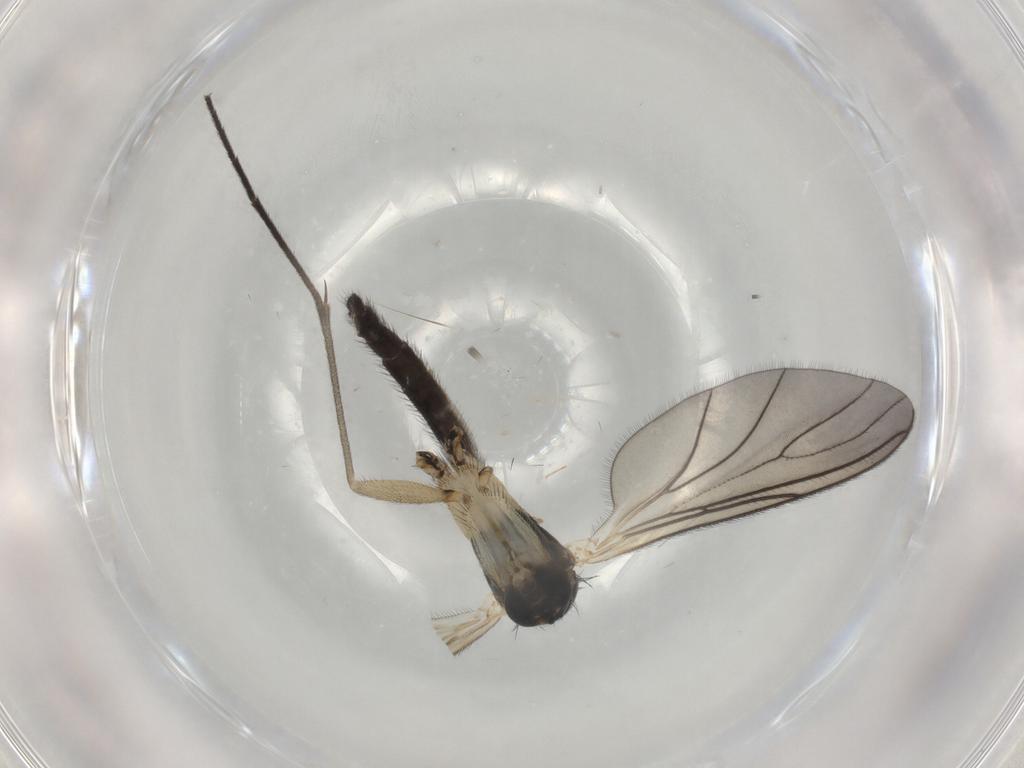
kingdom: Animalia
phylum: Arthropoda
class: Insecta
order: Diptera
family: Sciaridae
